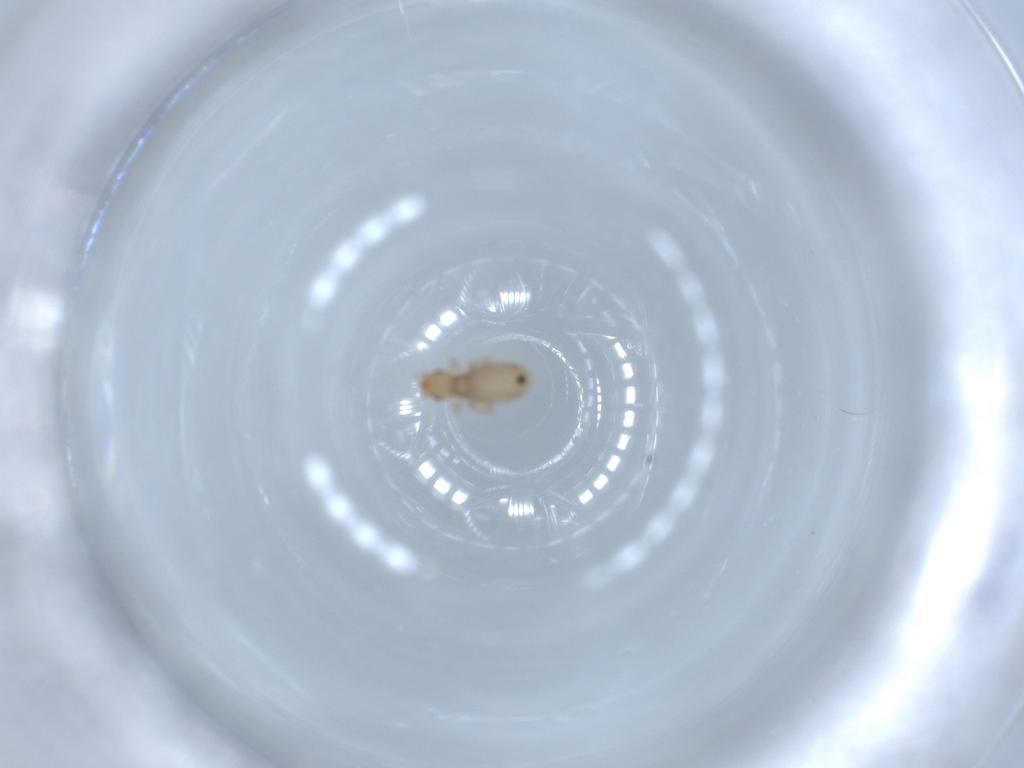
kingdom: Animalia
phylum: Arthropoda
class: Insecta
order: Psocodea
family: Liposcelididae
